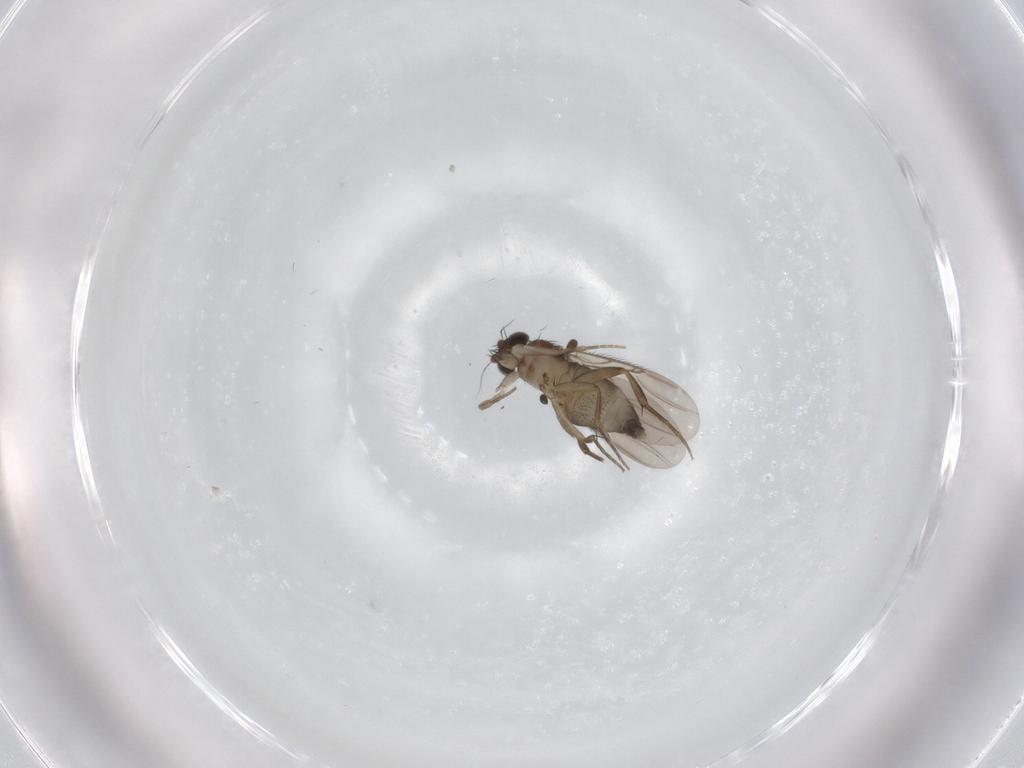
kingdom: Animalia
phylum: Arthropoda
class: Insecta
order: Diptera
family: Phoridae
